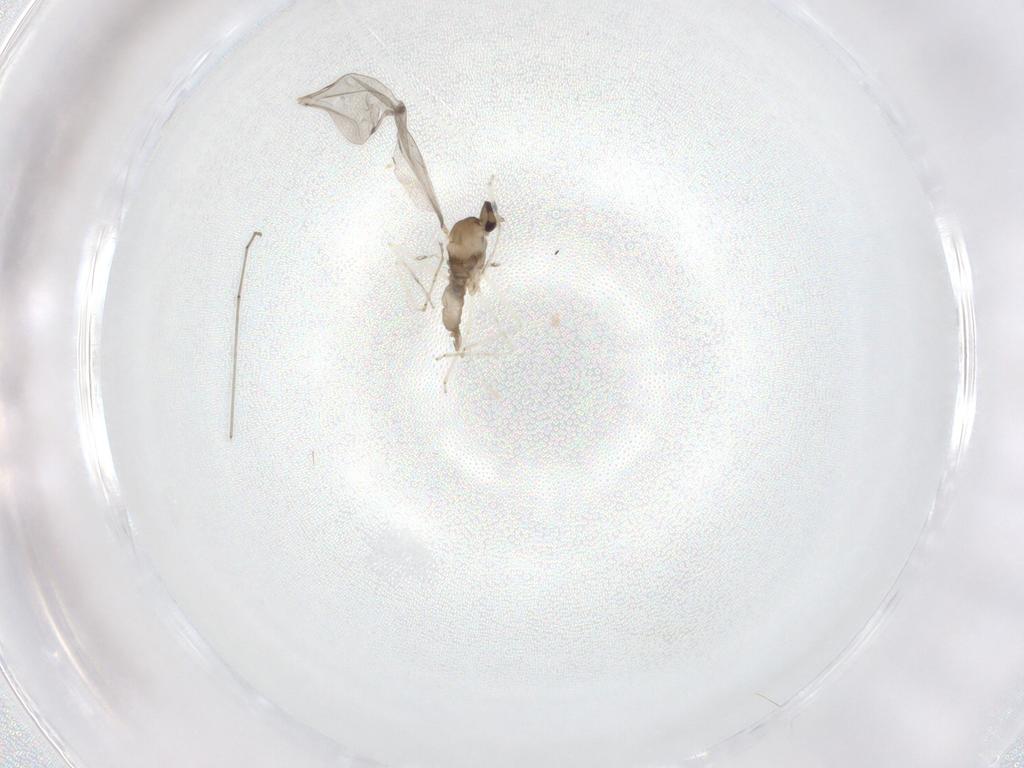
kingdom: Animalia
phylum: Arthropoda
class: Insecta
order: Diptera
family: Cecidomyiidae
